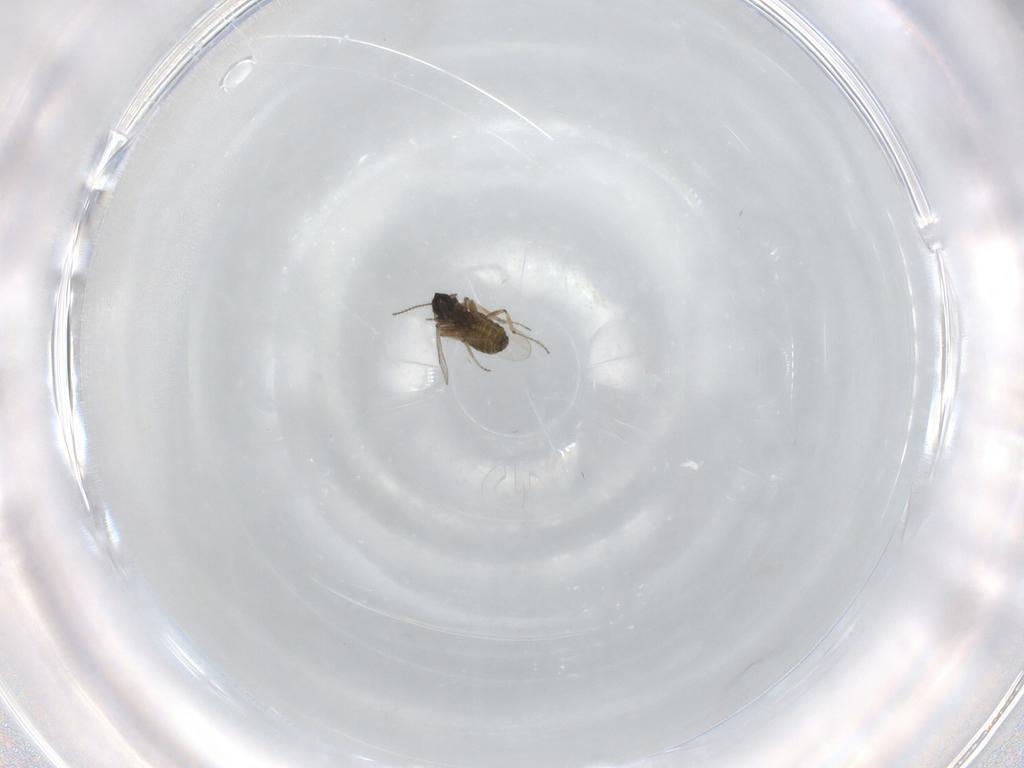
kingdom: Animalia
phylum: Arthropoda
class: Insecta
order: Diptera
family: Ceratopogonidae
